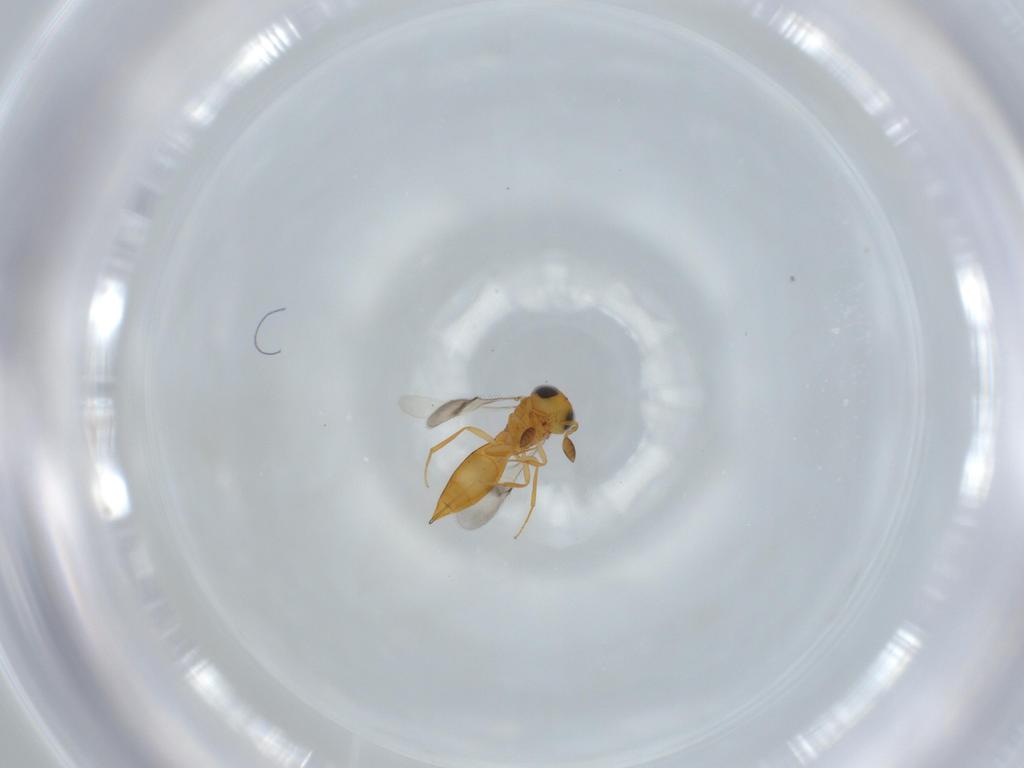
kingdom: Animalia
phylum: Arthropoda
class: Insecta
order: Hymenoptera
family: Scelionidae
